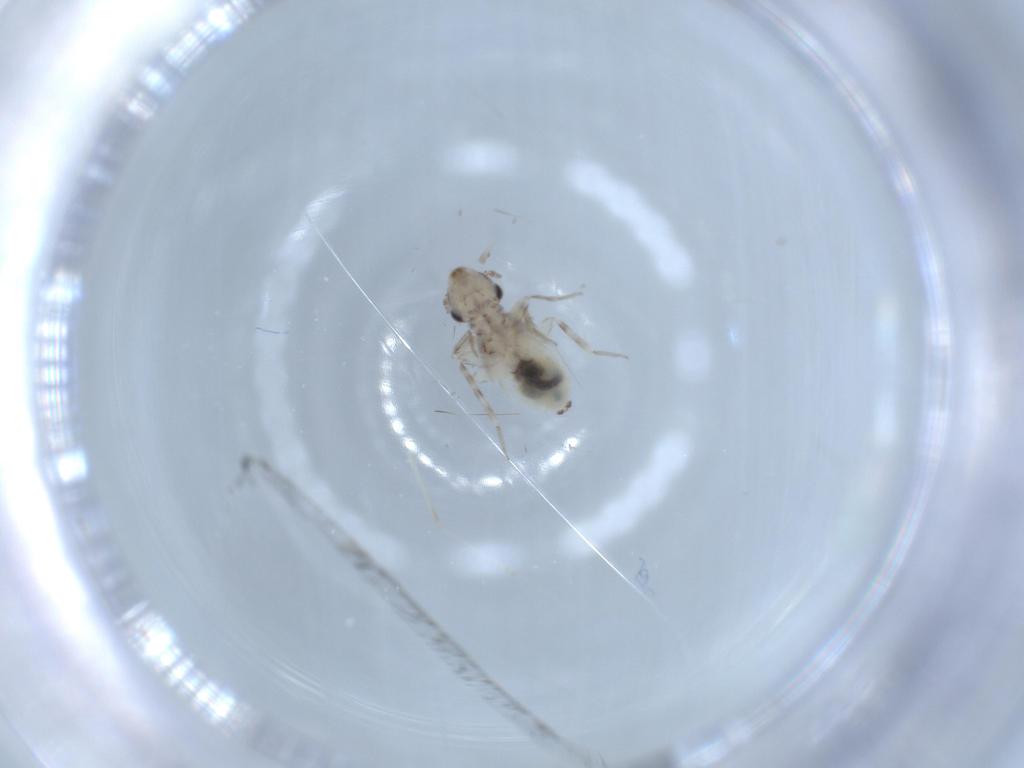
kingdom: Animalia
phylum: Arthropoda
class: Insecta
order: Psocodea
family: Lepidopsocidae
